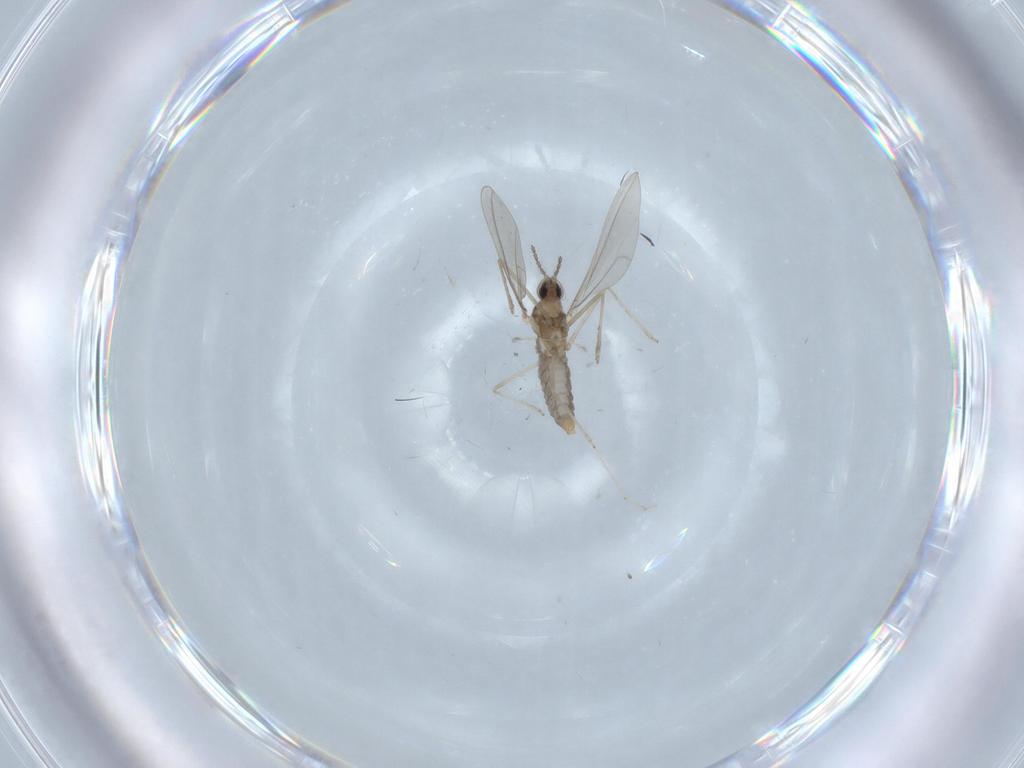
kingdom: Animalia
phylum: Arthropoda
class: Insecta
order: Diptera
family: Cecidomyiidae
